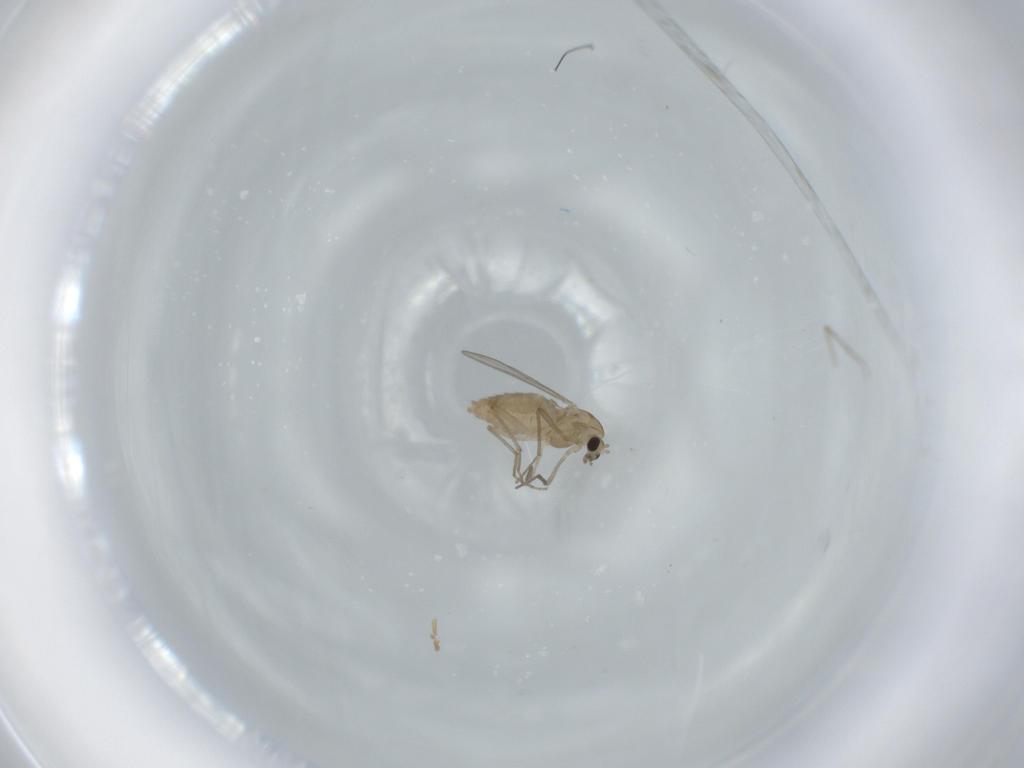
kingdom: Animalia
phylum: Arthropoda
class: Insecta
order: Diptera
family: Chironomidae
